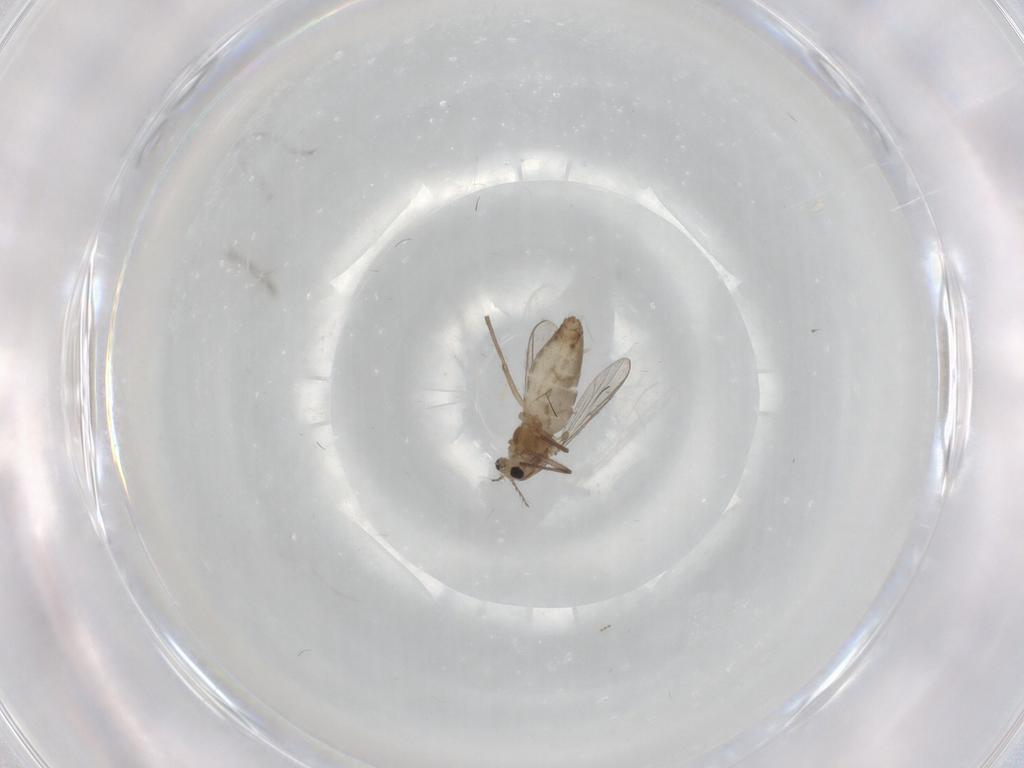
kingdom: Animalia
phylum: Arthropoda
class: Insecta
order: Diptera
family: Chironomidae
